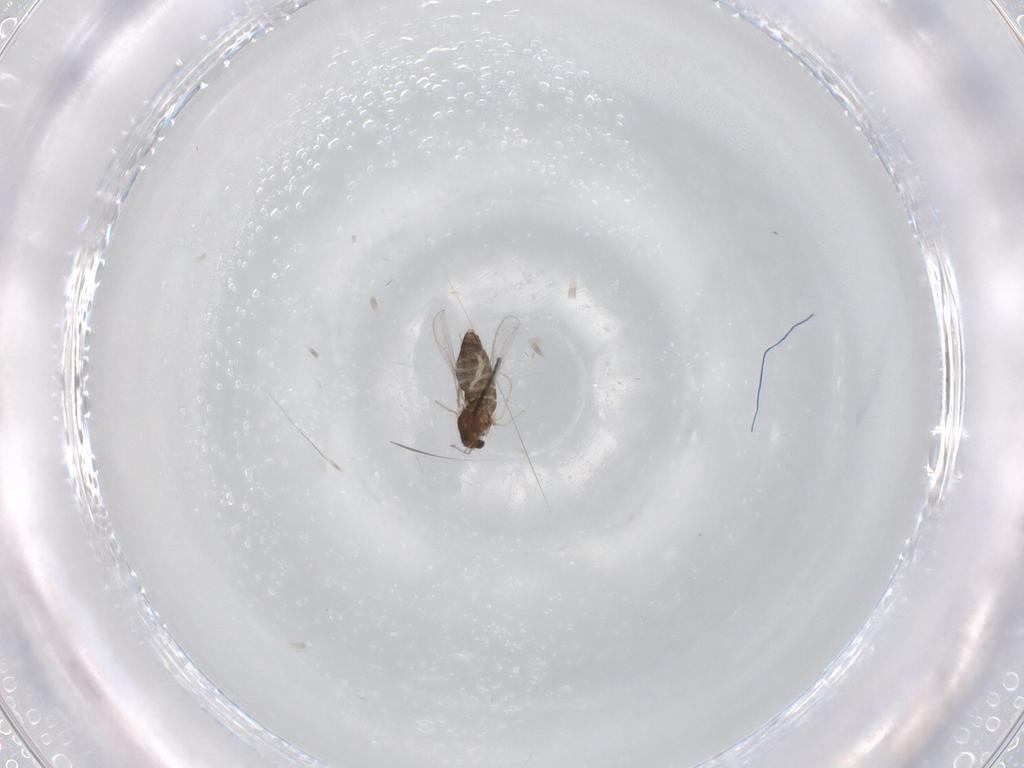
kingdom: Animalia
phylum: Arthropoda
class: Insecta
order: Diptera
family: Chironomidae
